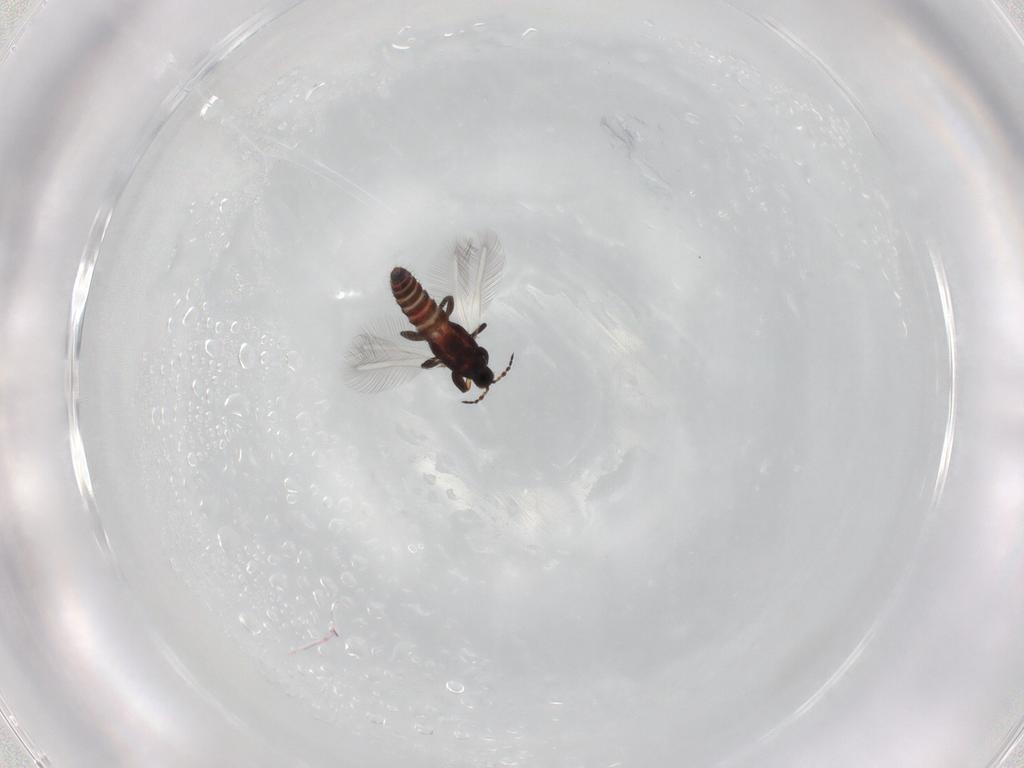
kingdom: Animalia
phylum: Arthropoda
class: Insecta
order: Thysanoptera
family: Phlaeothripidae
